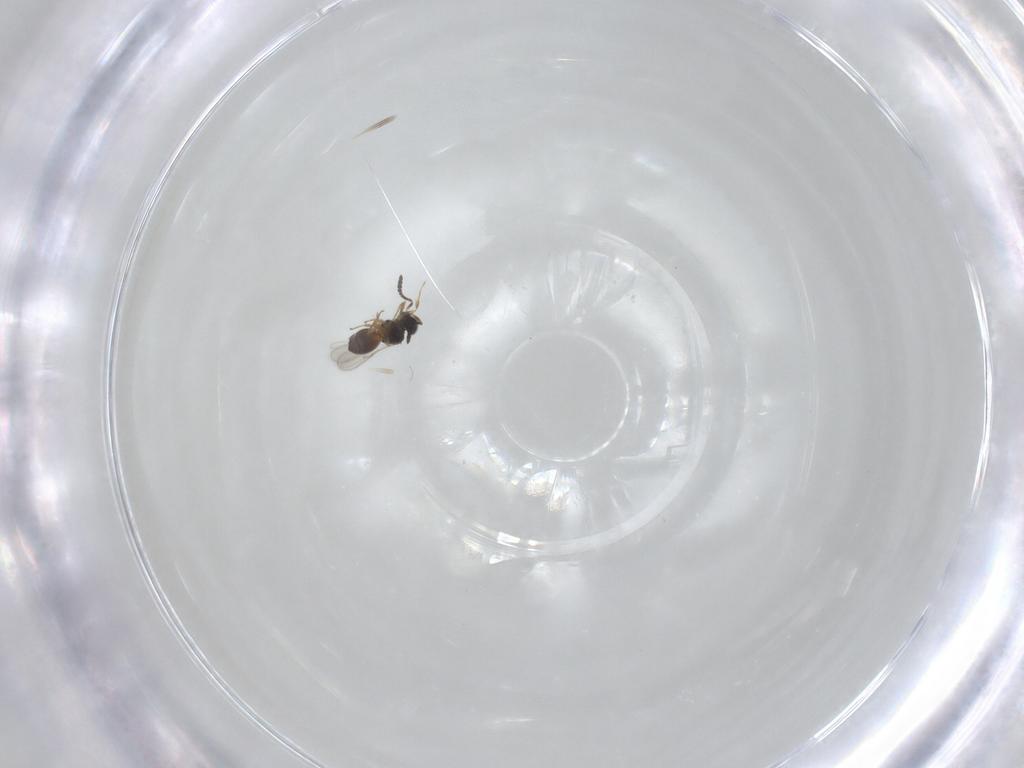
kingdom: Animalia
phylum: Arthropoda
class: Insecta
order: Hymenoptera
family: Scelionidae
